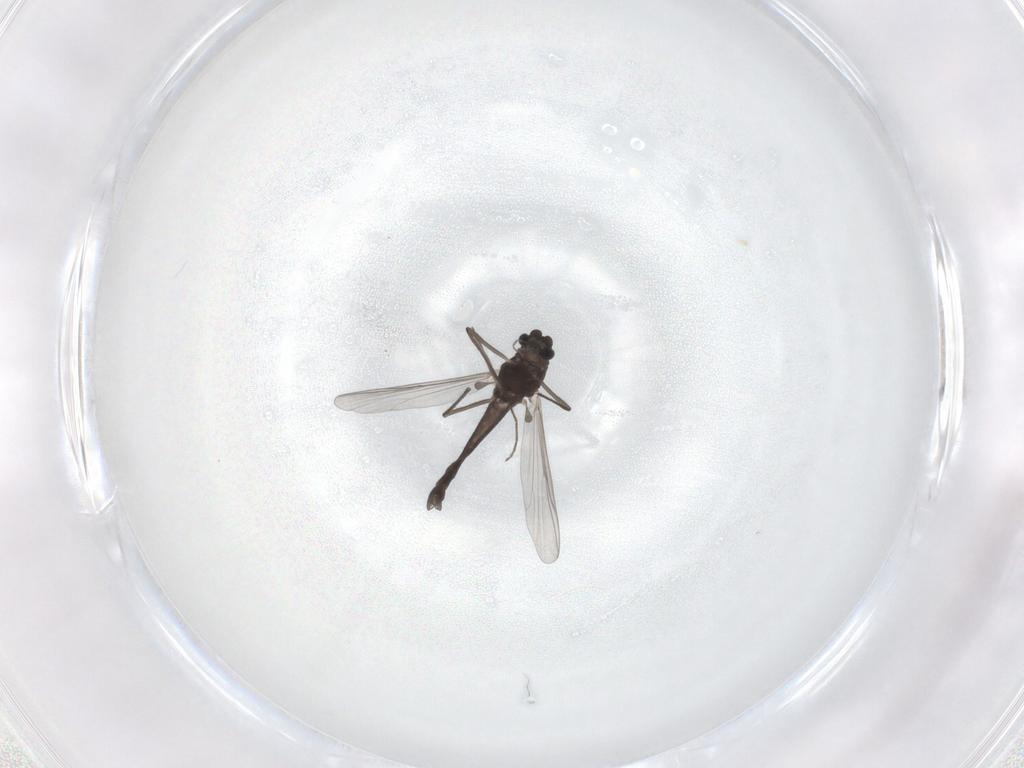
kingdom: Animalia
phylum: Arthropoda
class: Insecta
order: Diptera
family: Chironomidae
